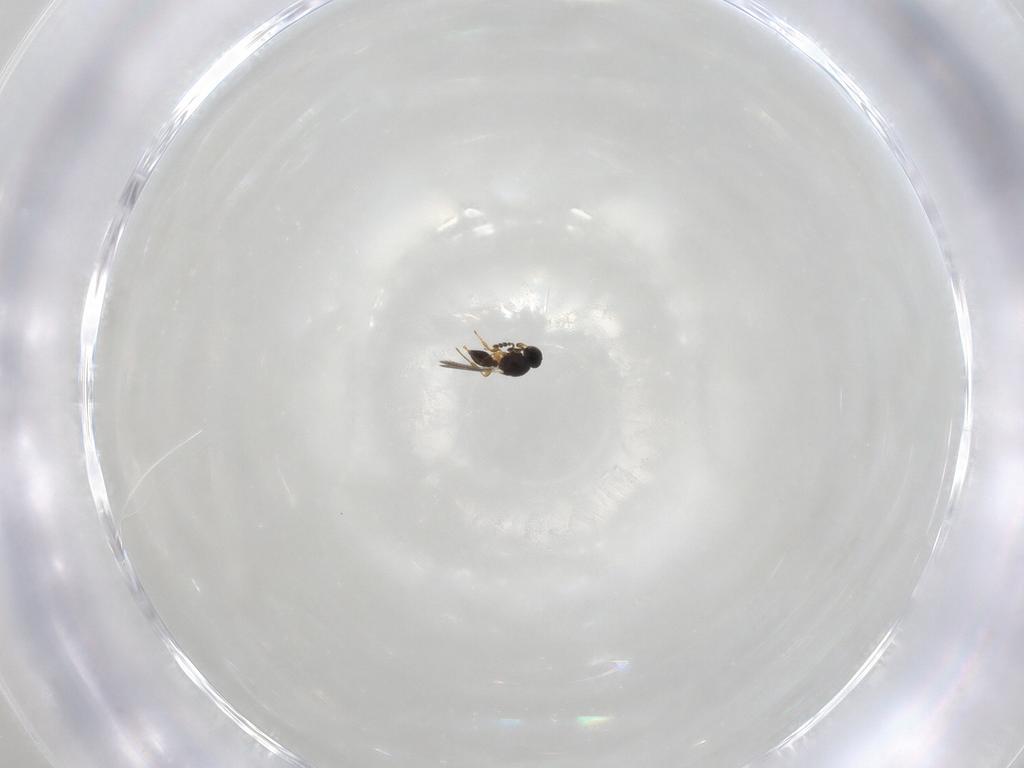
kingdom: Animalia
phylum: Arthropoda
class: Insecta
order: Hymenoptera
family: Platygastridae
